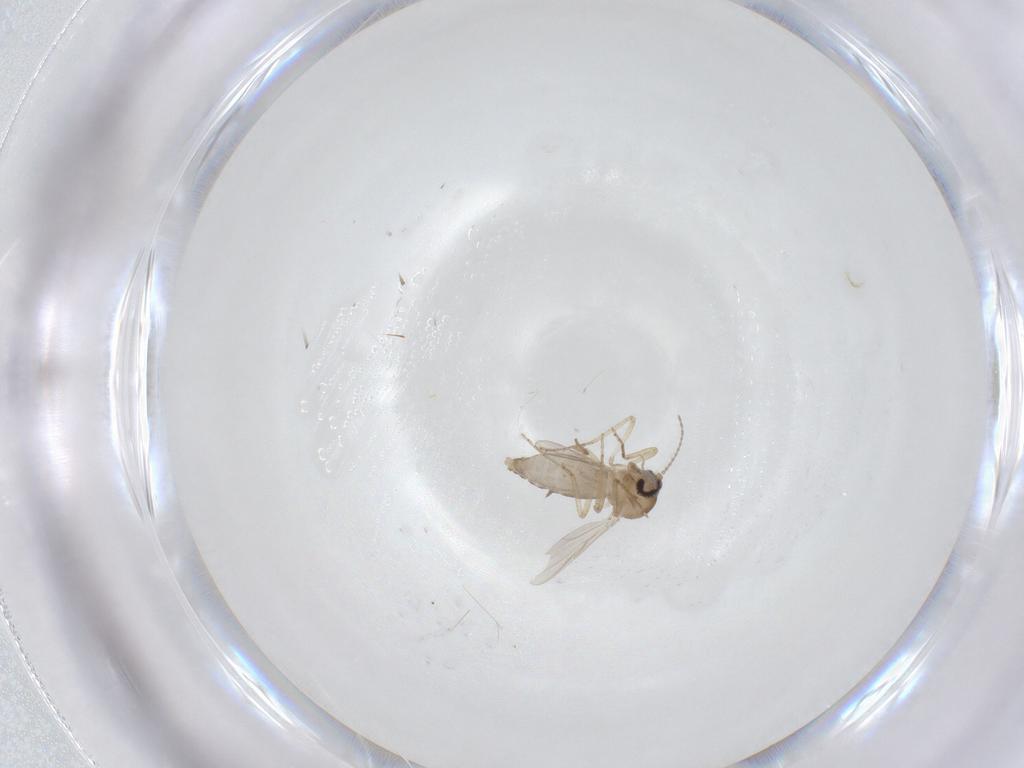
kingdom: Animalia
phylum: Arthropoda
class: Insecta
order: Diptera
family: Ceratopogonidae
